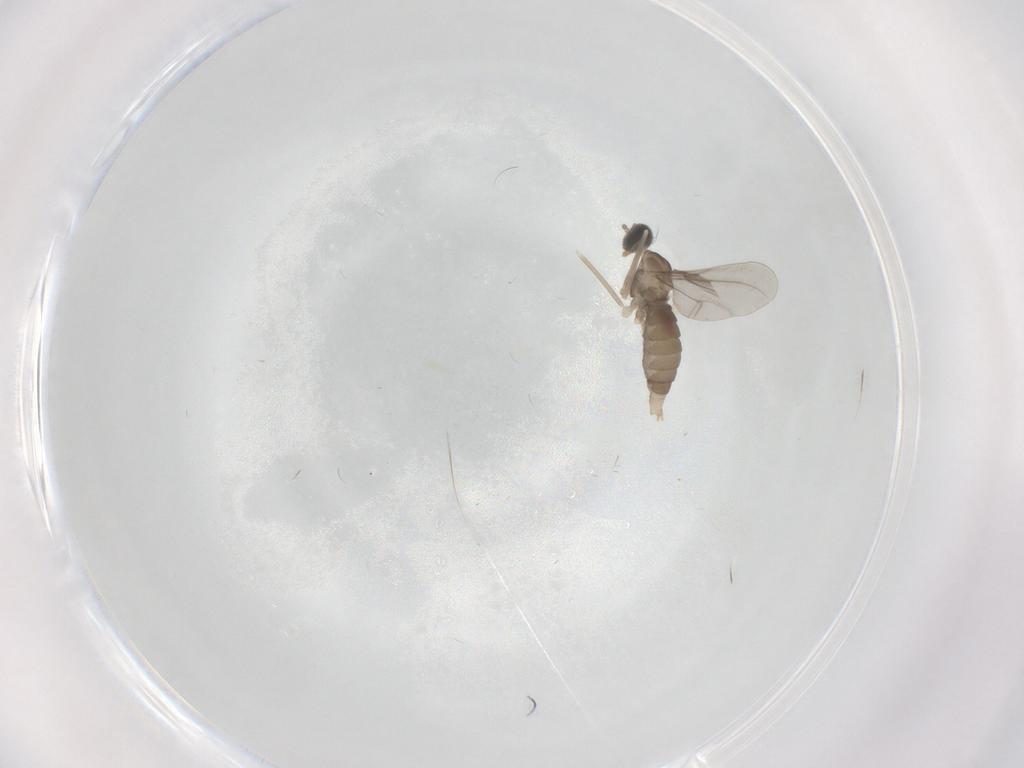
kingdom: Animalia
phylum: Arthropoda
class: Insecta
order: Diptera
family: Cecidomyiidae
